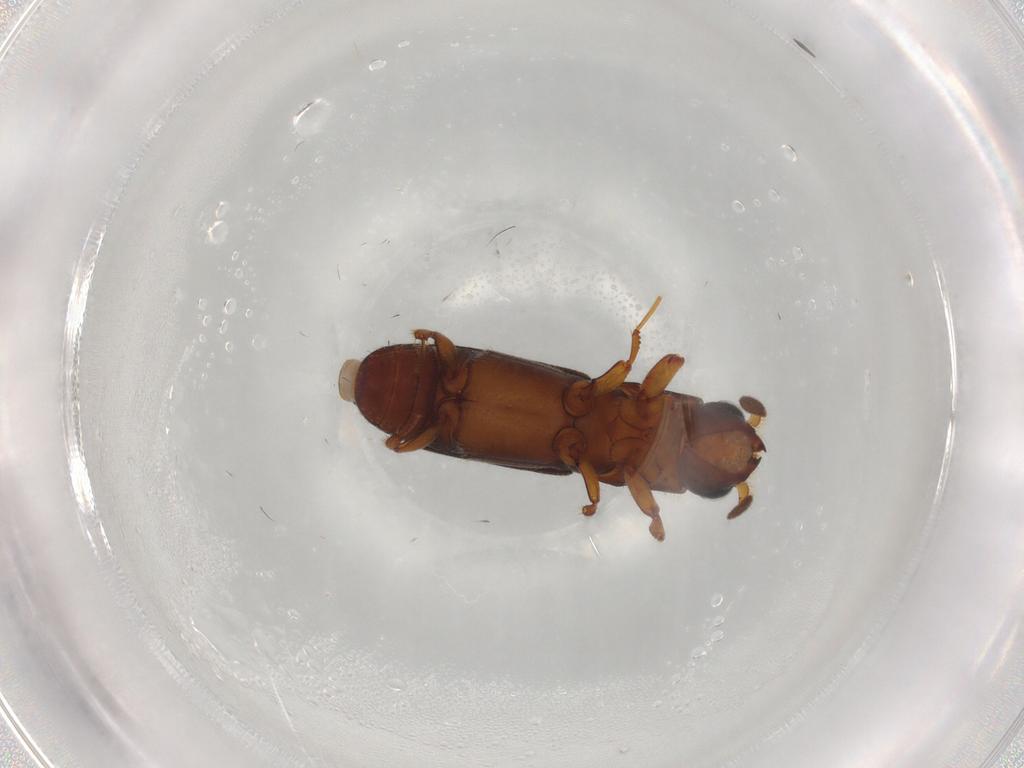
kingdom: Animalia
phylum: Arthropoda
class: Insecta
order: Coleoptera
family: Curculionidae
